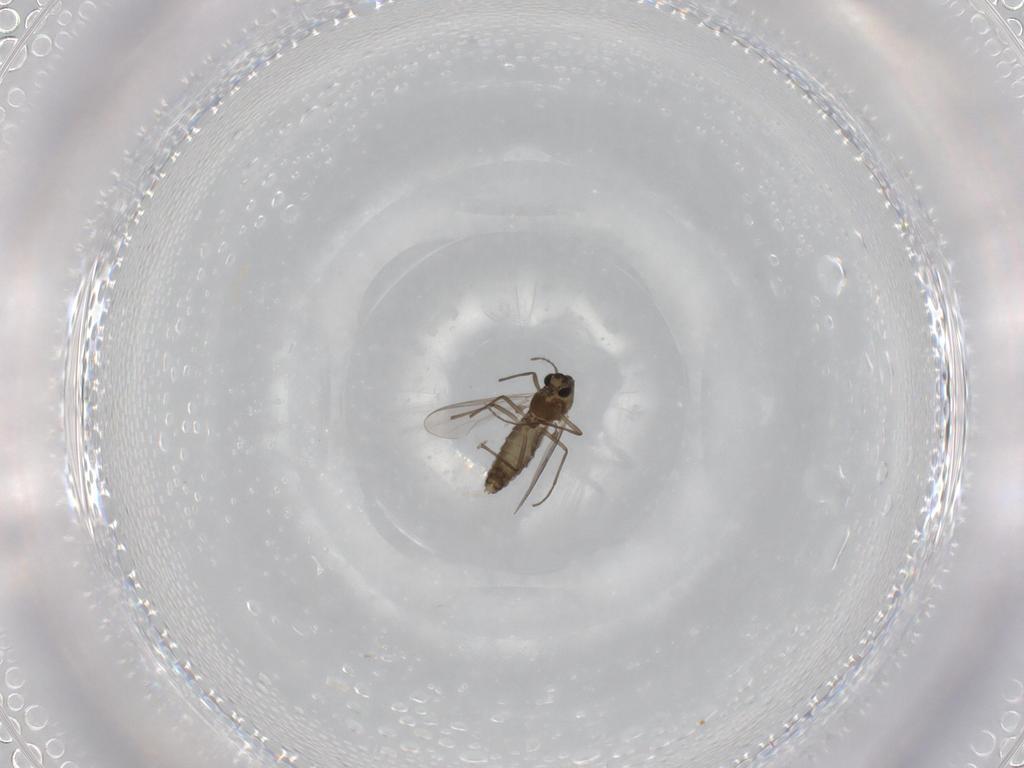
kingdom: Animalia
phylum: Arthropoda
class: Insecta
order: Diptera
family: Chironomidae
